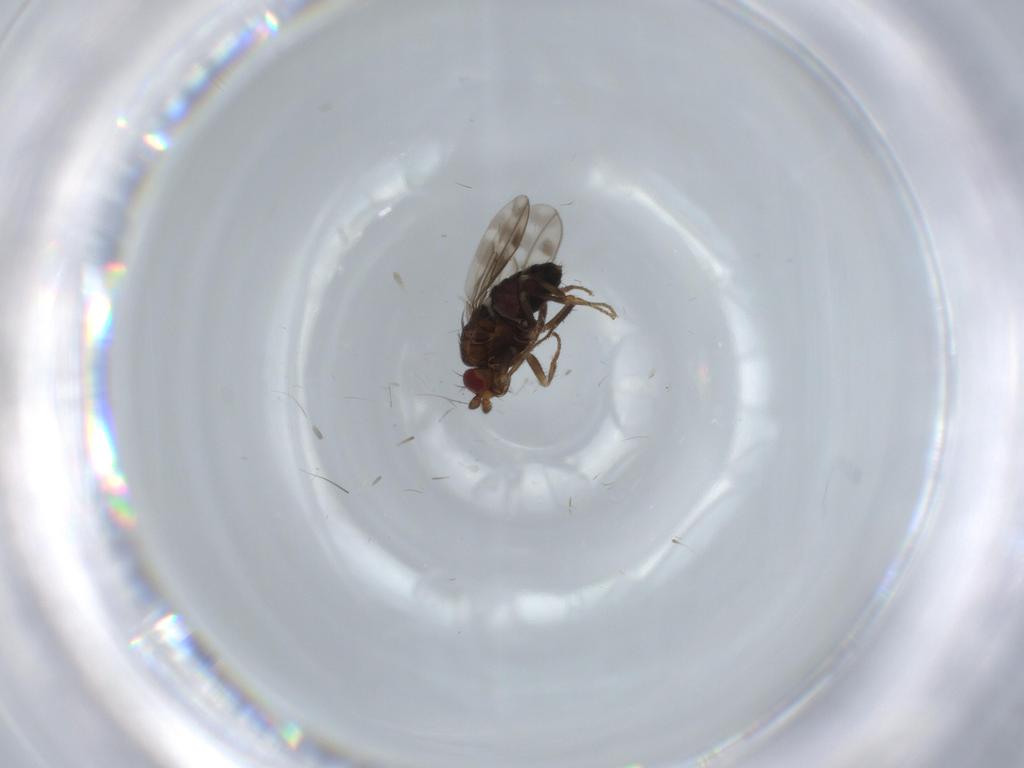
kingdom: Animalia
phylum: Arthropoda
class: Insecta
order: Diptera
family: Sphaeroceridae
